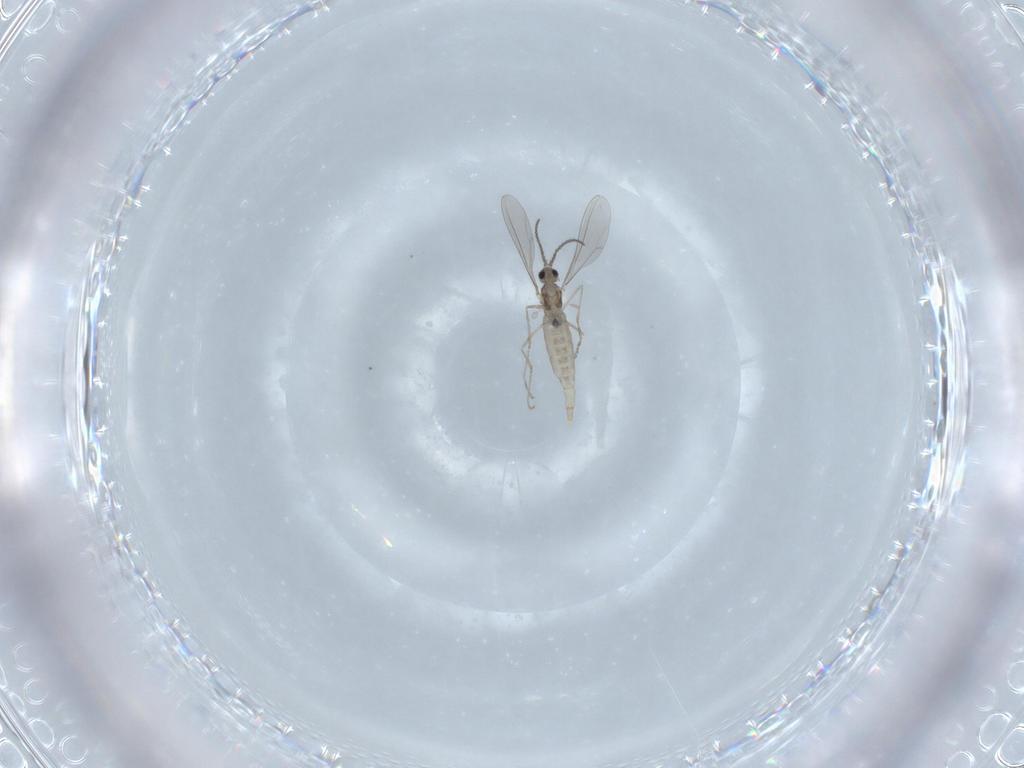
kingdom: Animalia
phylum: Arthropoda
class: Insecta
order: Diptera
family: Cecidomyiidae
